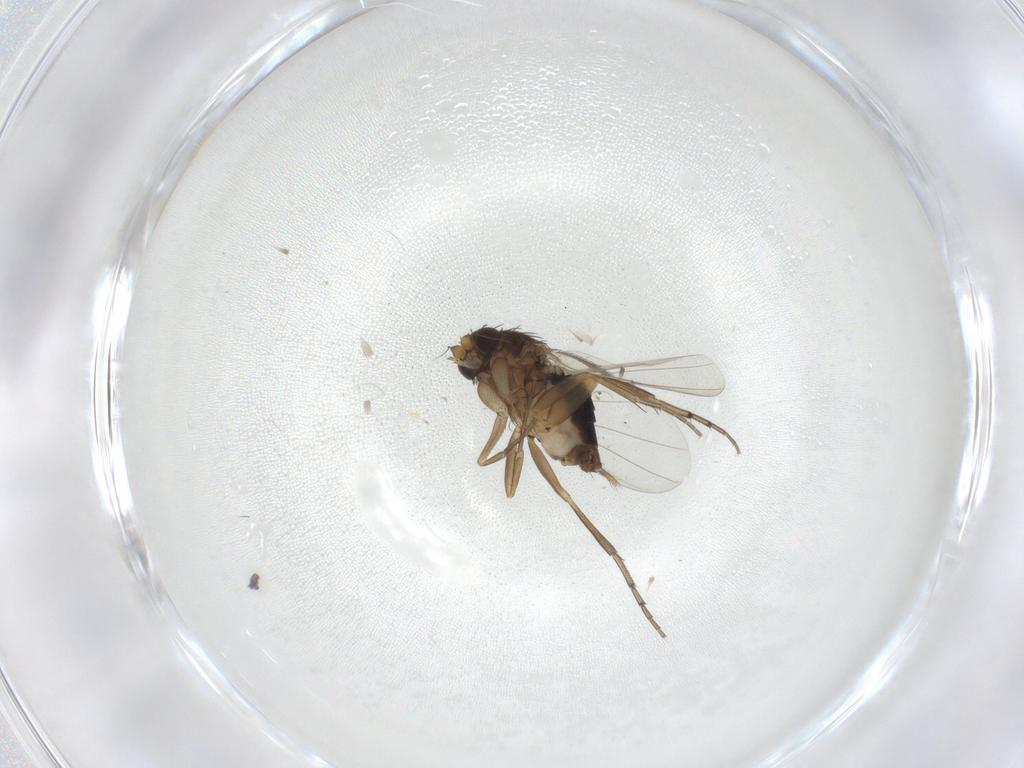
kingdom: Animalia
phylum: Arthropoda
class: Insecta
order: Diptera
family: Phoridae
